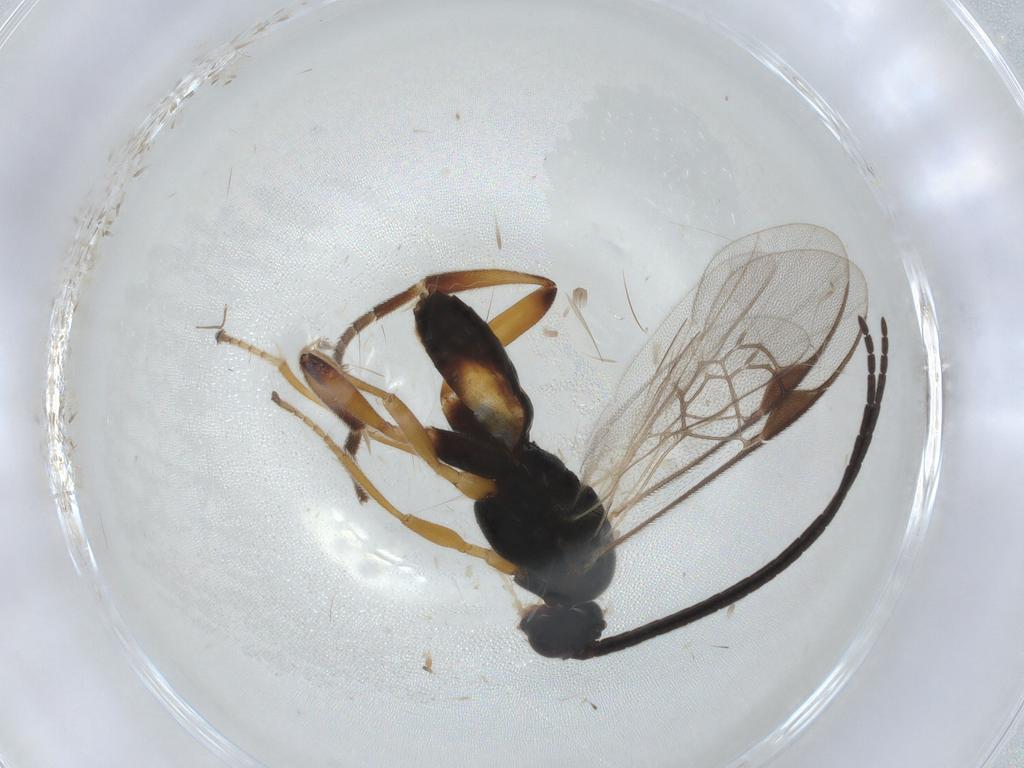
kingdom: Animalia
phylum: Arthropoda
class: Insecta
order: Hymenoptera
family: Braconidae
